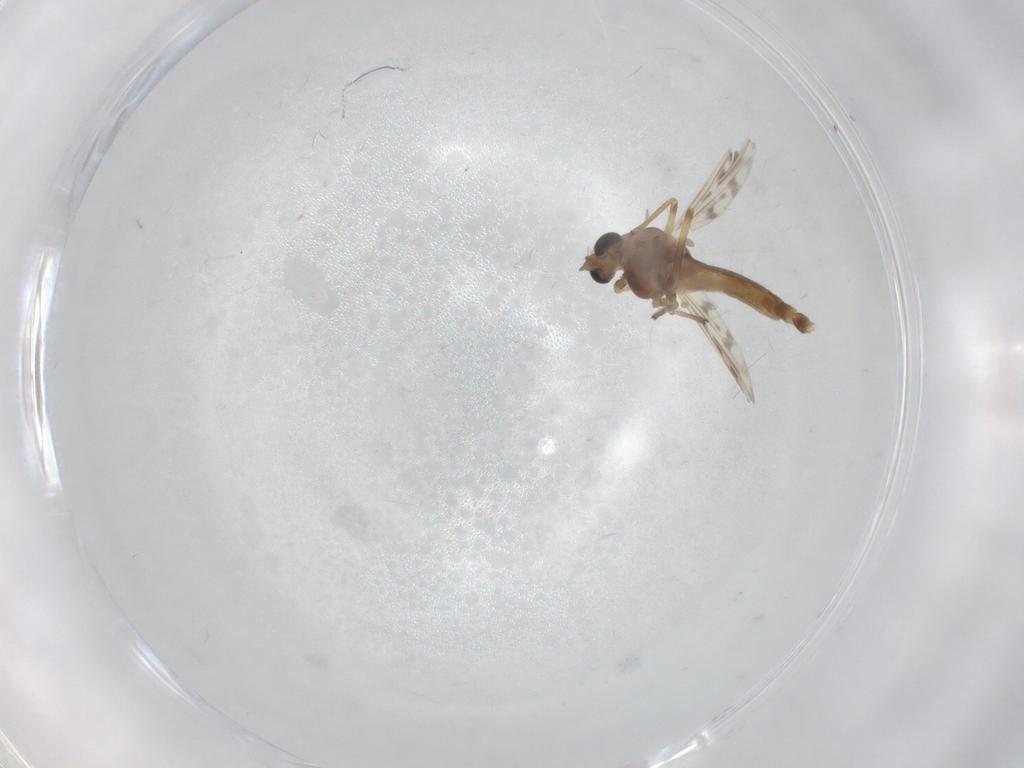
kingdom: Animalia
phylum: Arthropoda
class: Insecta
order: Diptera
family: Chironomidae
